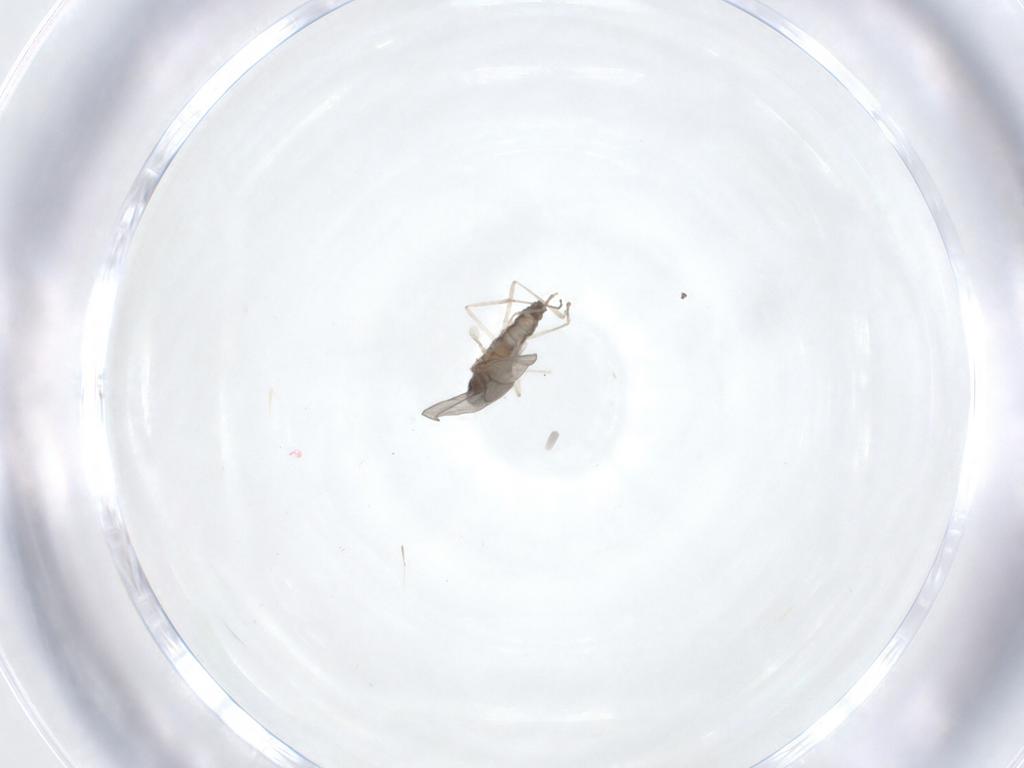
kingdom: Animalia
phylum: Arthropoda
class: Insecta
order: Diptera
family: Cecidomyiidae
